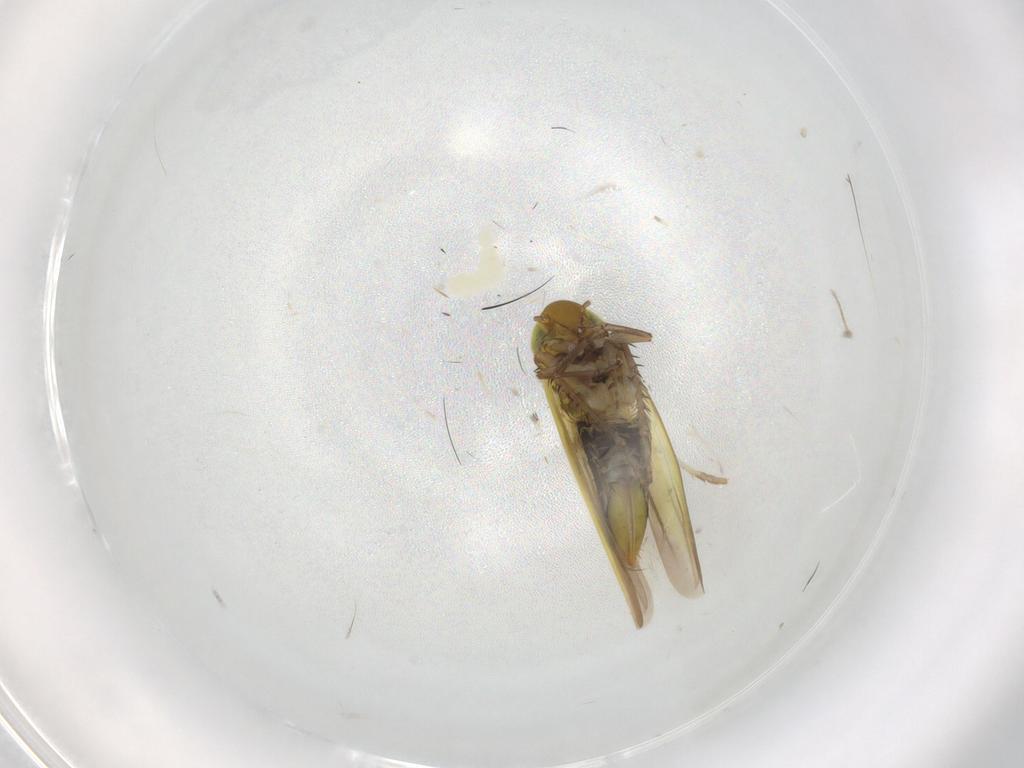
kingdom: Animalia
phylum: Arthropoda
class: Insecta
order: Hemiptera
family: Cicadellidae
